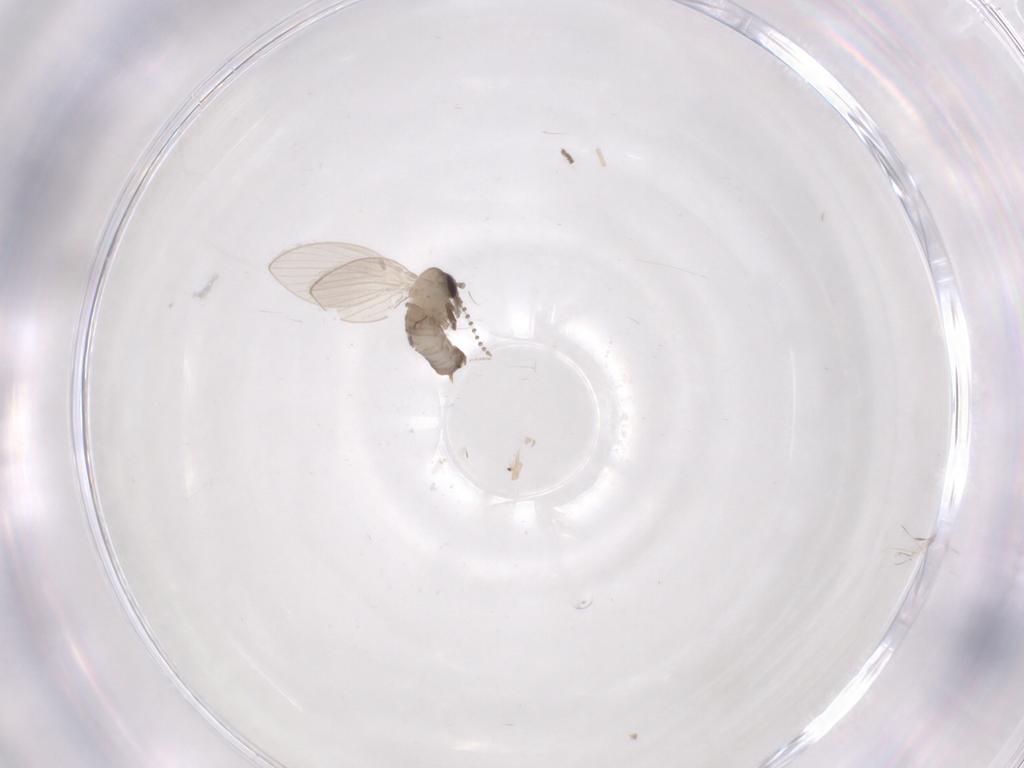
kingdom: Animalia
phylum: Arthropoda
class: Insecta
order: Diptera
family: Psychodidae
